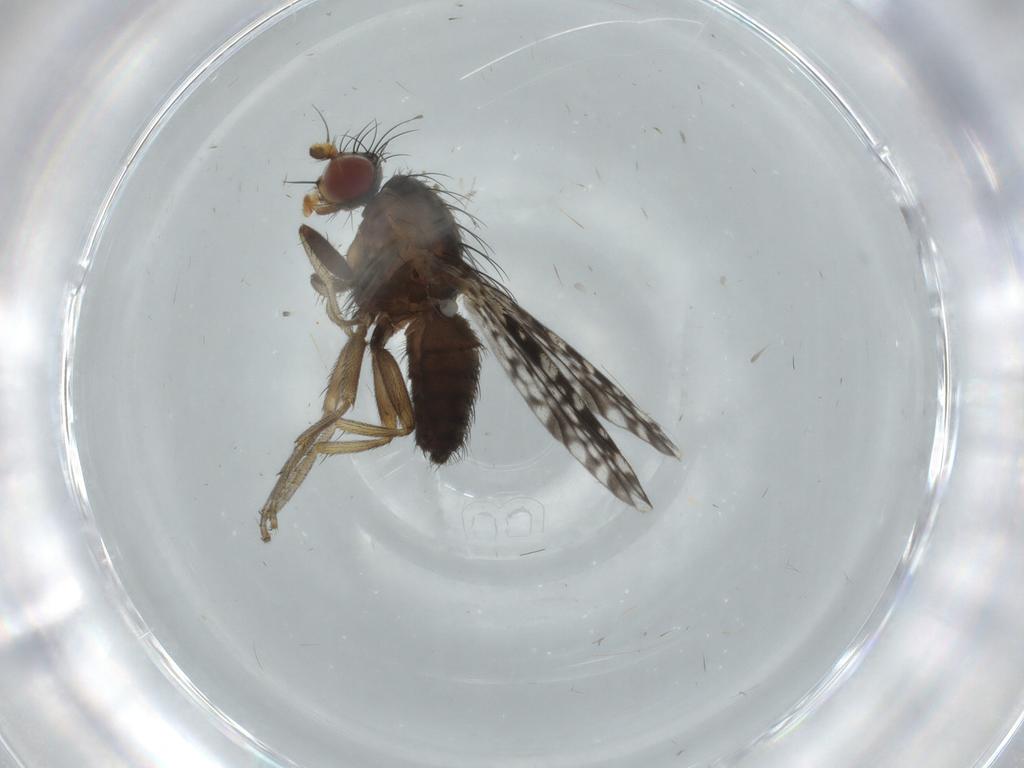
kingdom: Animalia
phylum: Arthropoda
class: Insecta
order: Diptera
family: Tephritidae
